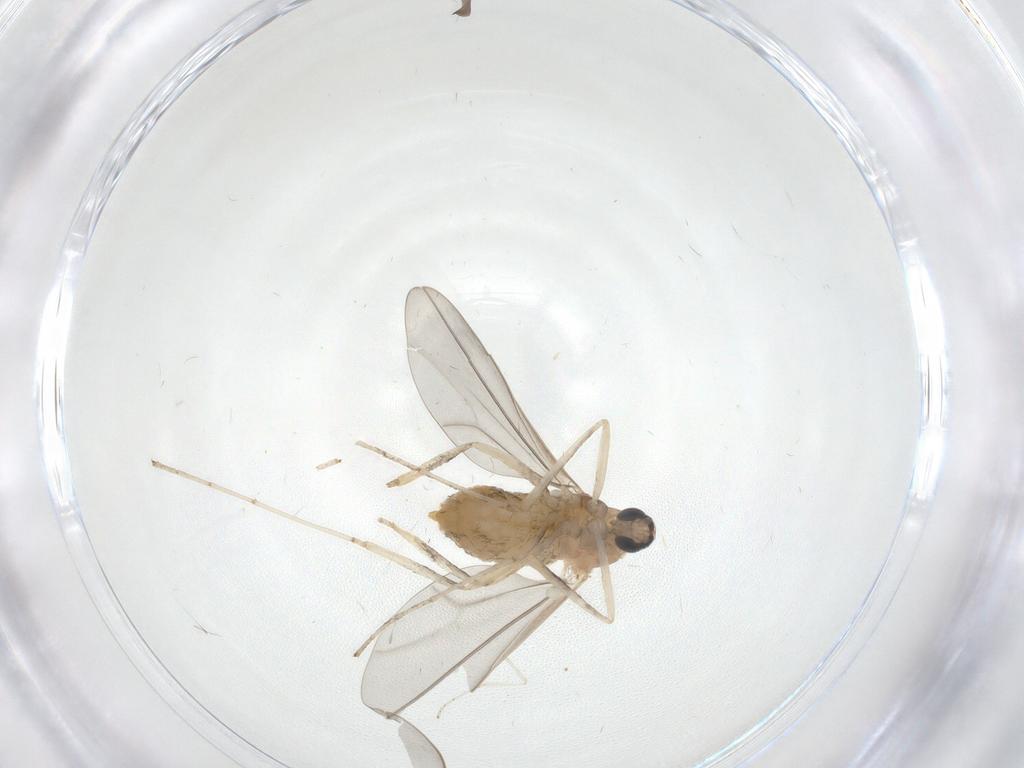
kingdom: Animalia
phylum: Arthropoda
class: Insecta
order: Diptera
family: Cecidomyiidae
